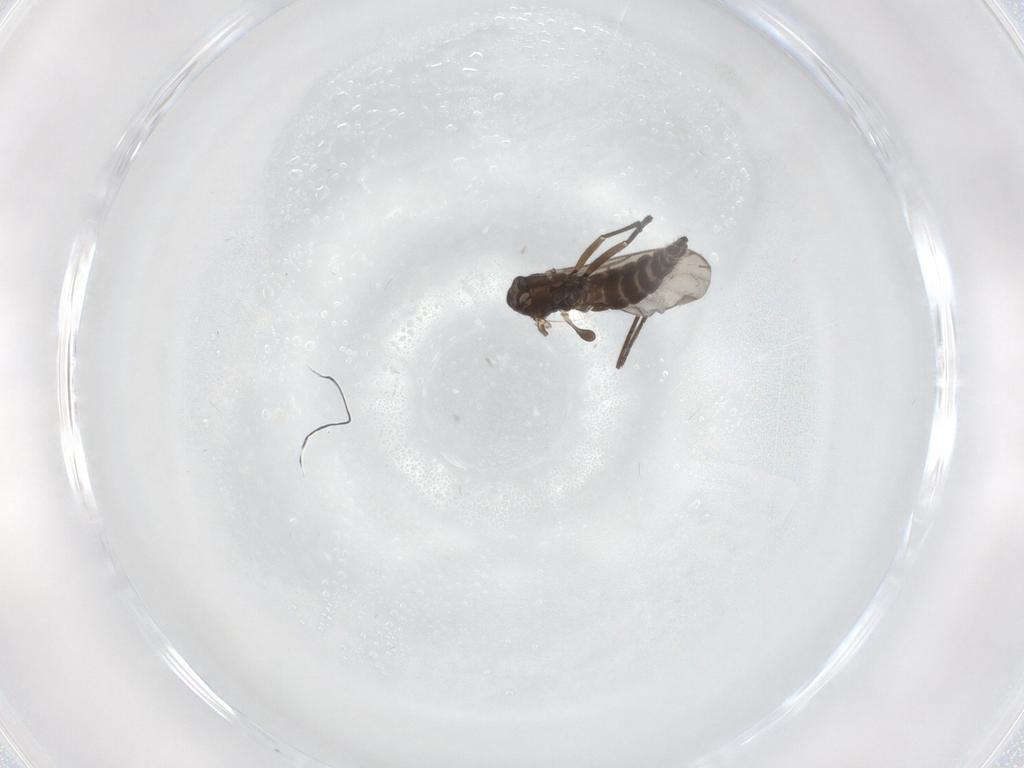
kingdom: Animalia
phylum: Arthropoda
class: Insecta
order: Diptera
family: Sciaridae
